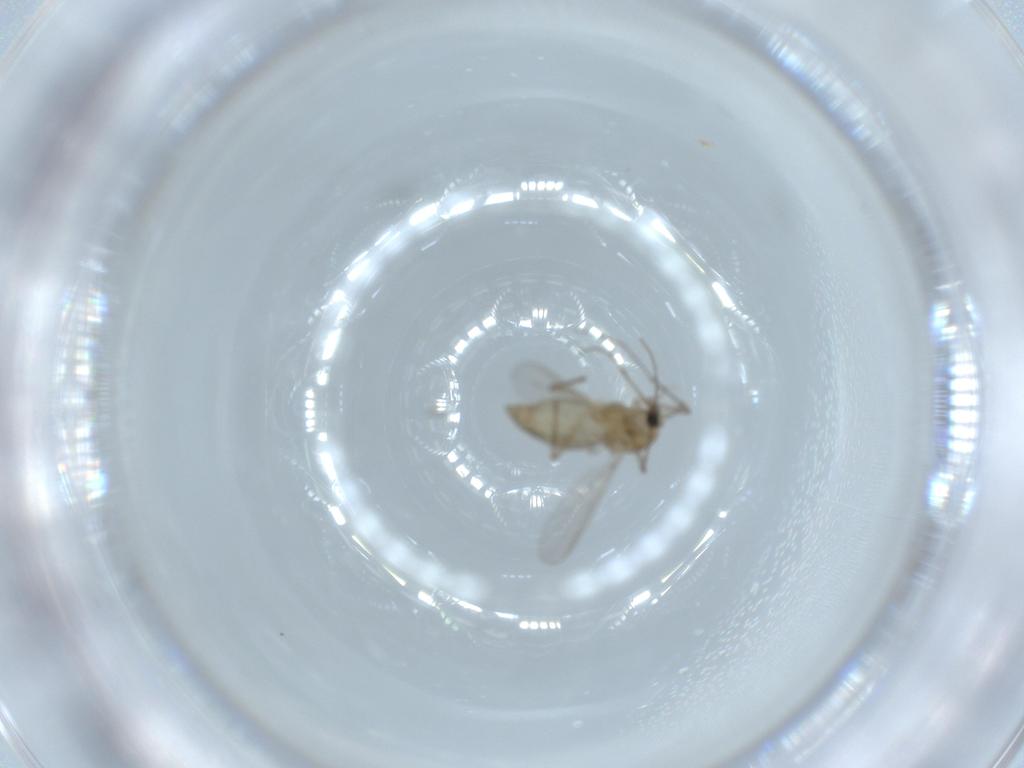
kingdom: Animalia
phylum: Arthropoda
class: Insecta
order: Diptera
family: Chironomidae
